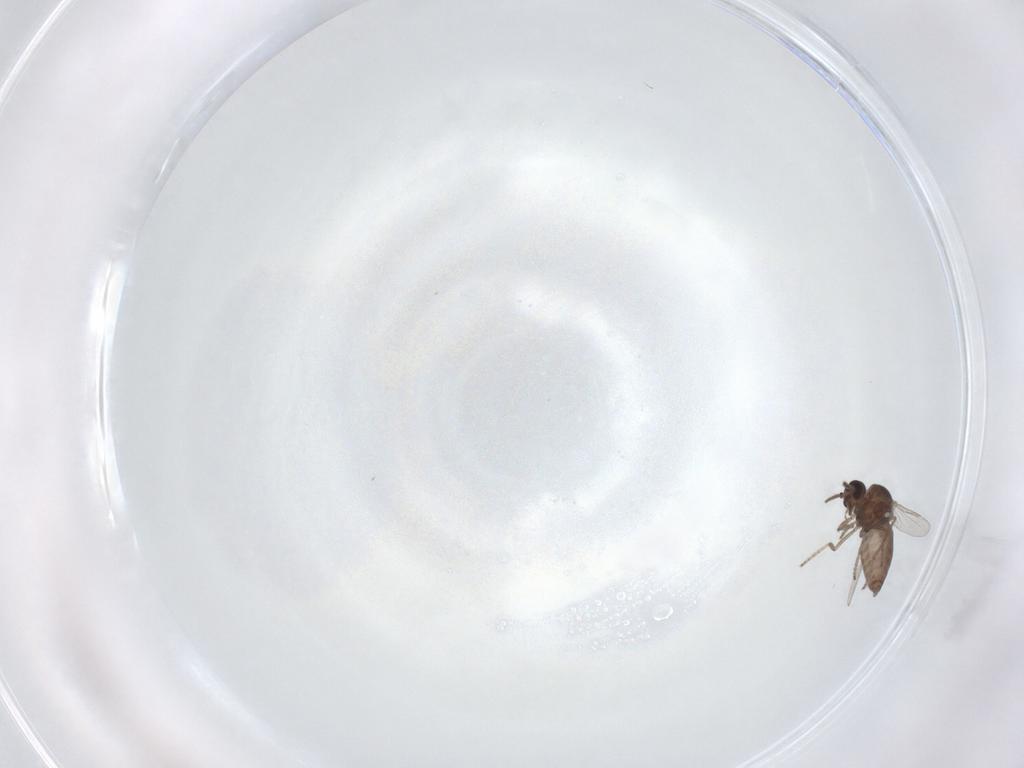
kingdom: Animalia
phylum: Arthropoda
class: Insecta
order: Diptera
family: Ceratopogonidae
